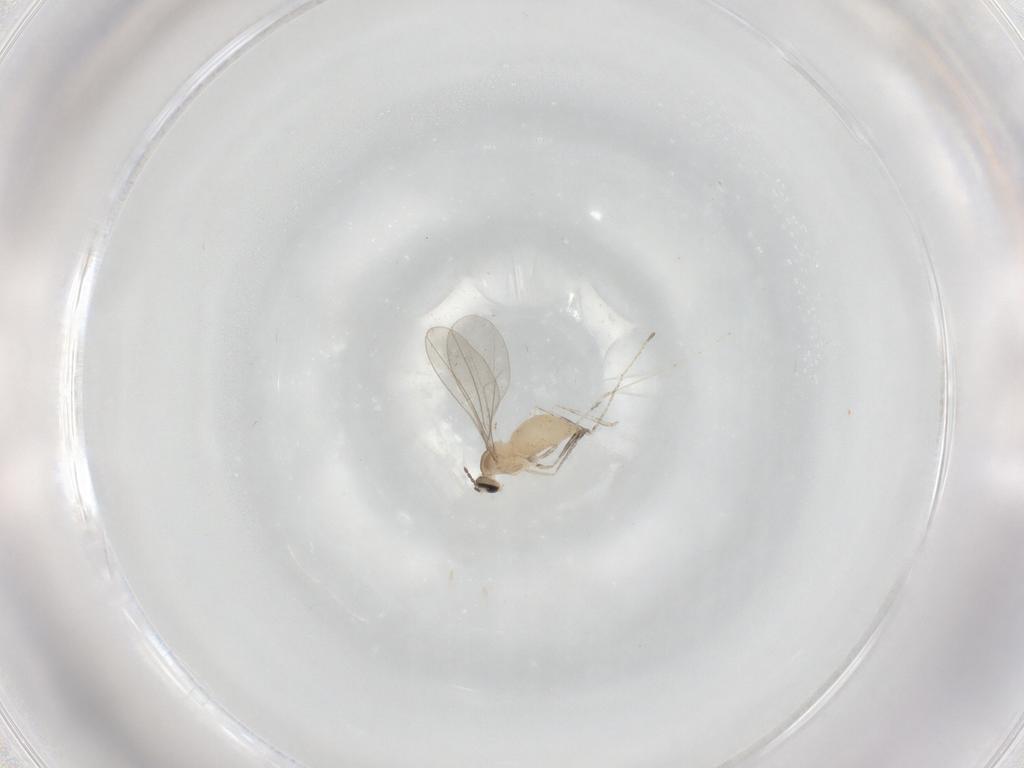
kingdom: Animalia
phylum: Arthropoda
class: Insecta
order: Diptera
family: Cecidomyiidae
